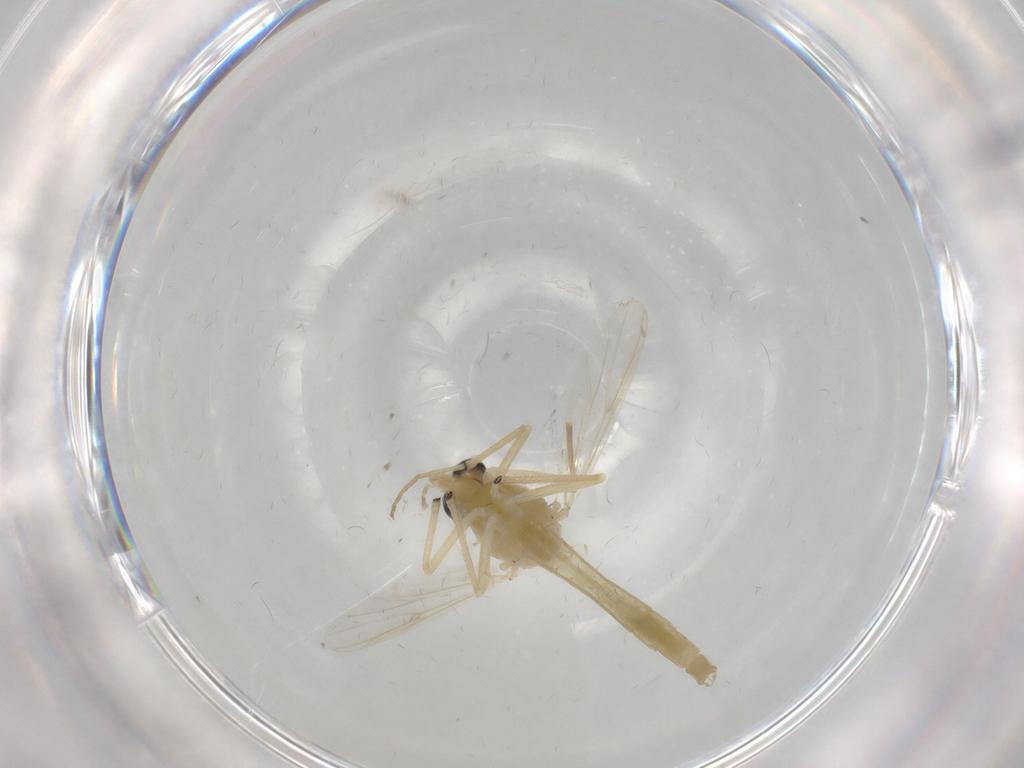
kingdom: Animalia
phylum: Arthropoda
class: Insecta
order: Diptera
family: Chironomidae
